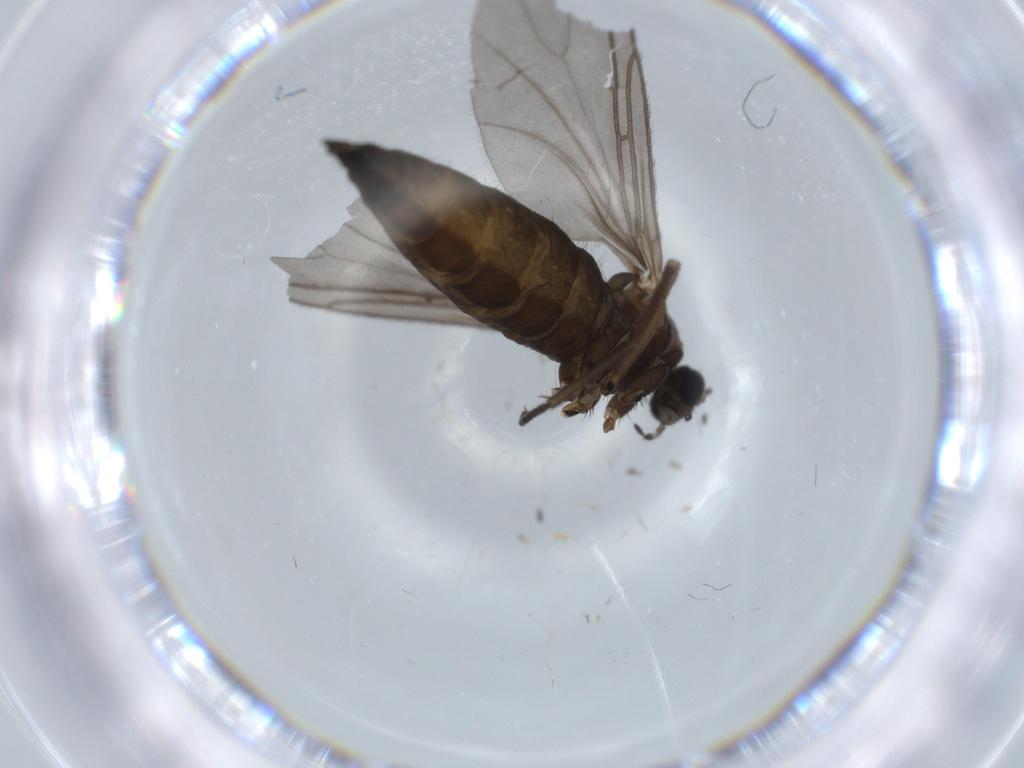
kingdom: Animalia
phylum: Arthropoda
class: Insecta
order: Diptera
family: Sciaridae
